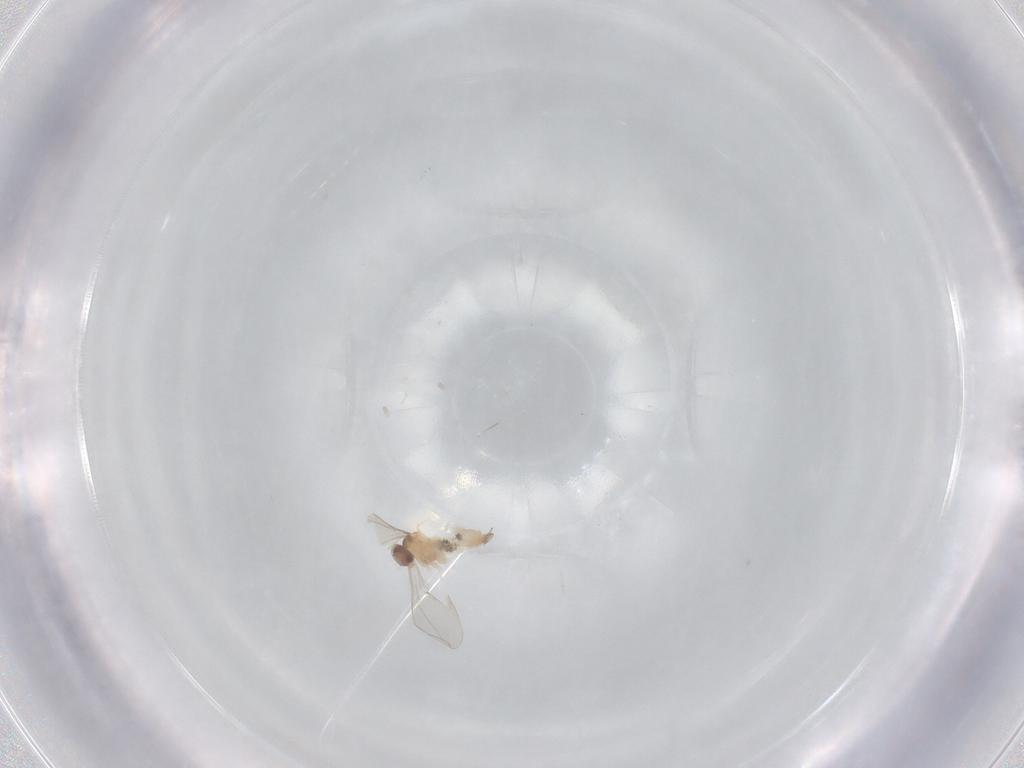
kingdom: Animalia
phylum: Arthropoda
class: Insecta
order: Diptera
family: Cecidomyiidae
